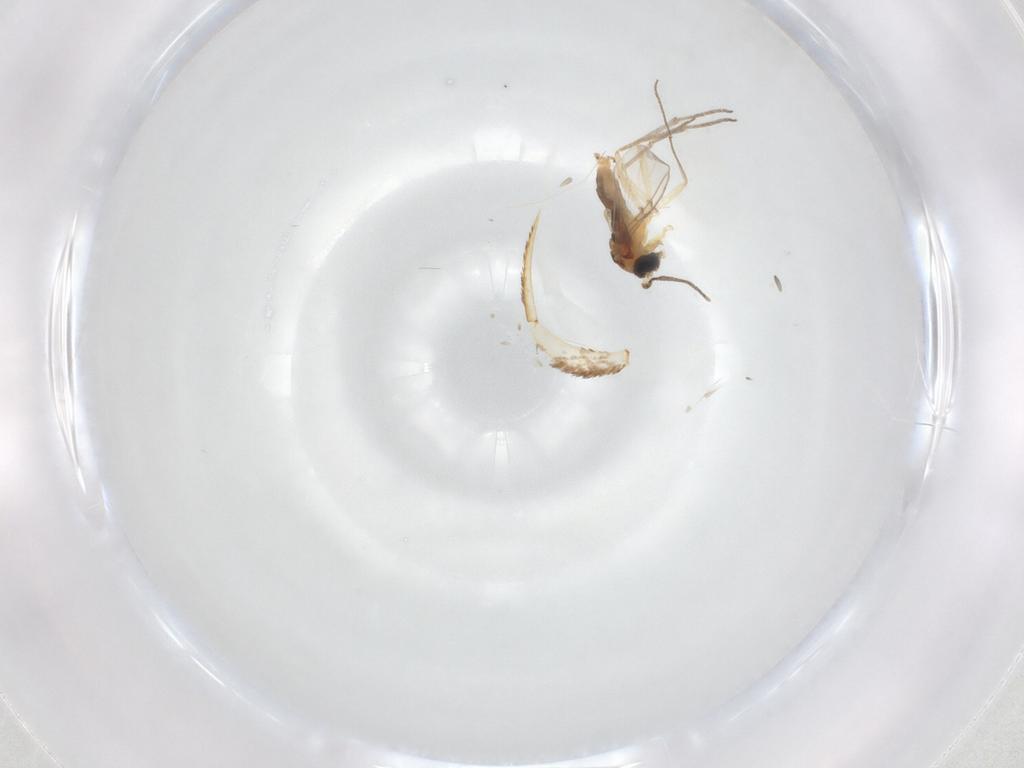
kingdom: Animalia
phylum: Arthropoda
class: Insecta
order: Diptera
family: Sciaridae
